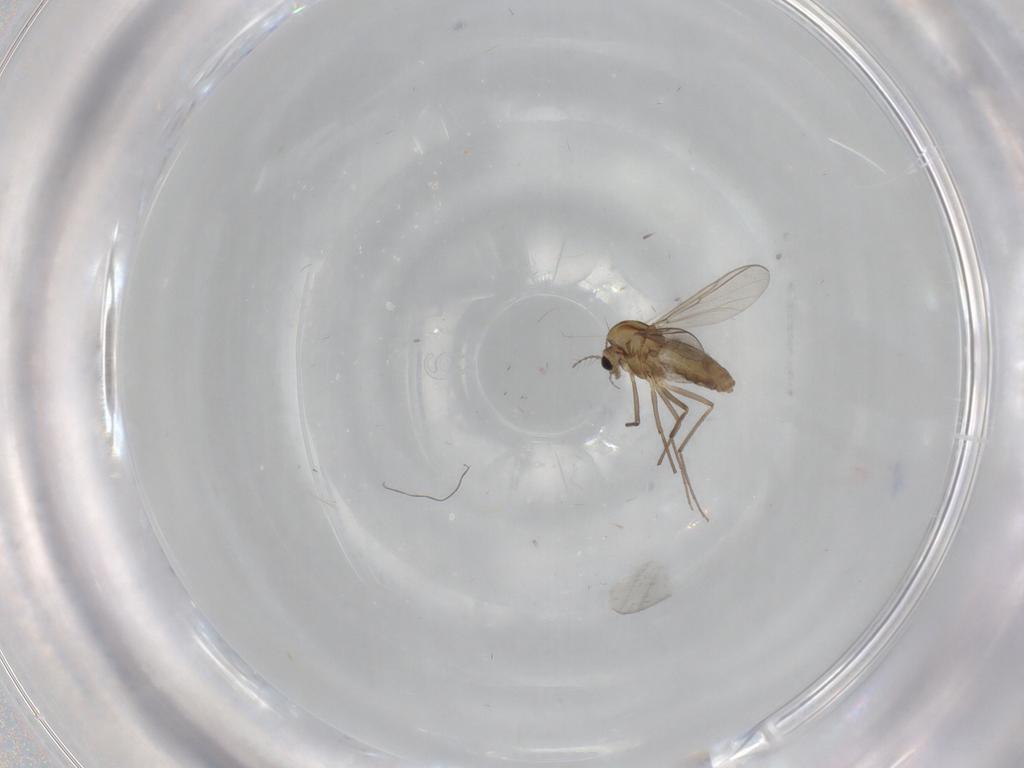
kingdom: Animalia
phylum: Arthropoda
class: Insecta
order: Diptera
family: Chironomidae
